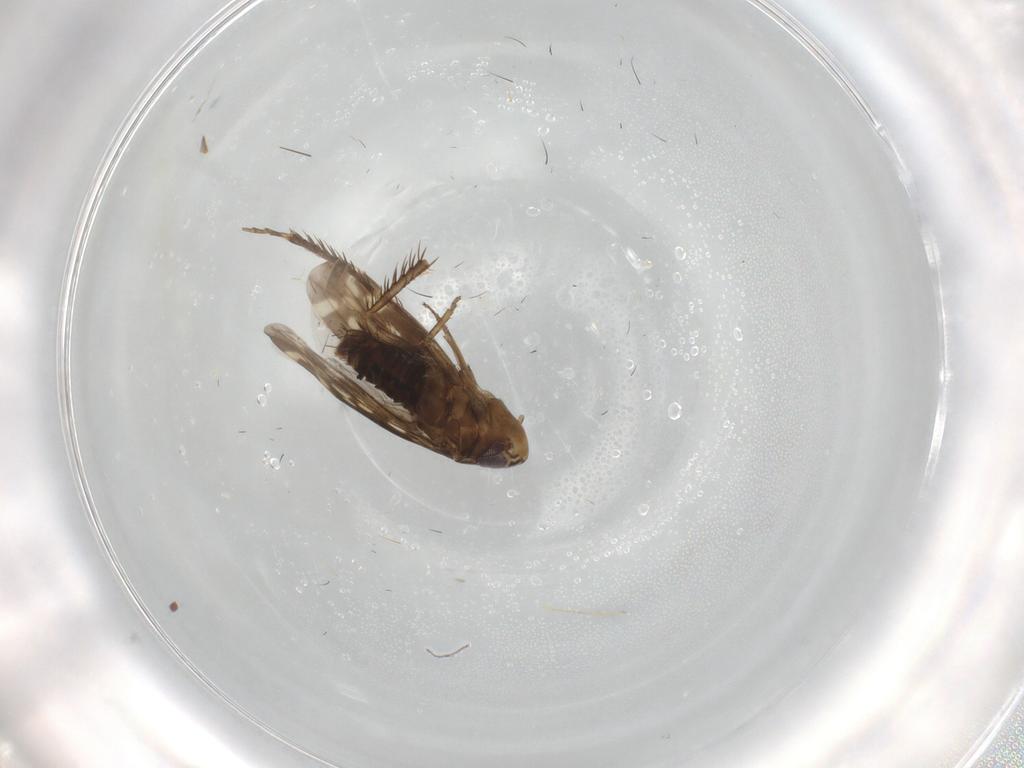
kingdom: Animalia
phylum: Arthropoda
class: Insecta
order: Hemiptera
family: Cicadellidae
